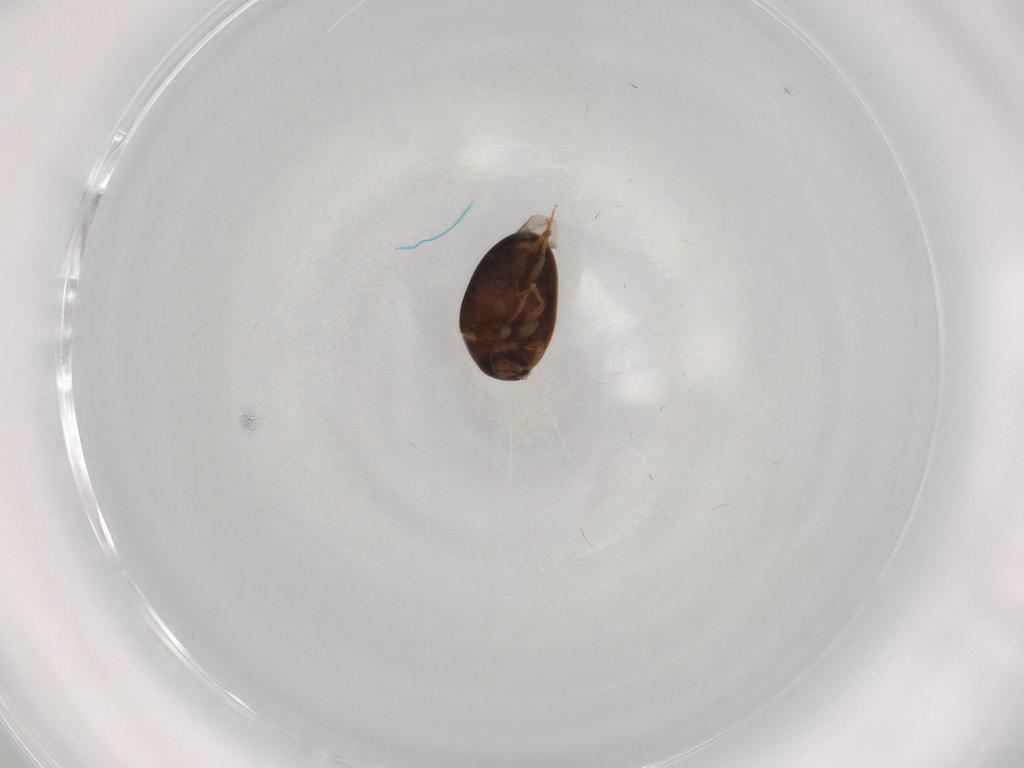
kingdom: Animalia
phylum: Arthropoda
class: Insecta
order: Coleoptera
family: Phalacridae
